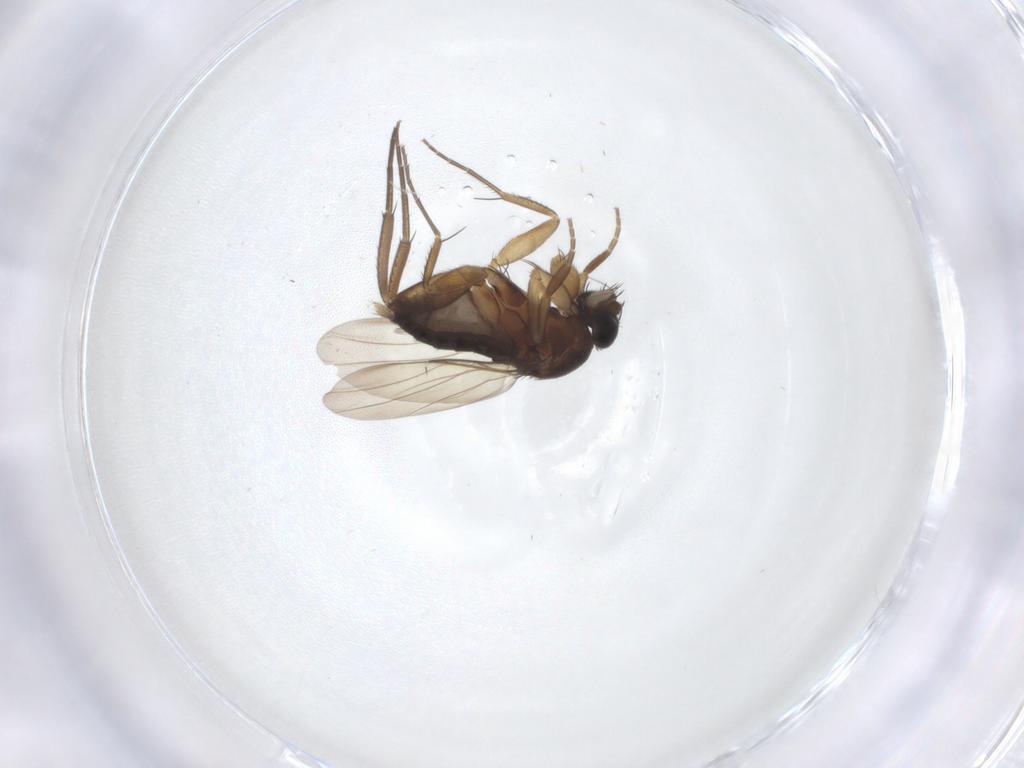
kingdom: Animalia
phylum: Arthropoda
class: Insecta
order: Diptera
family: Phoridae
